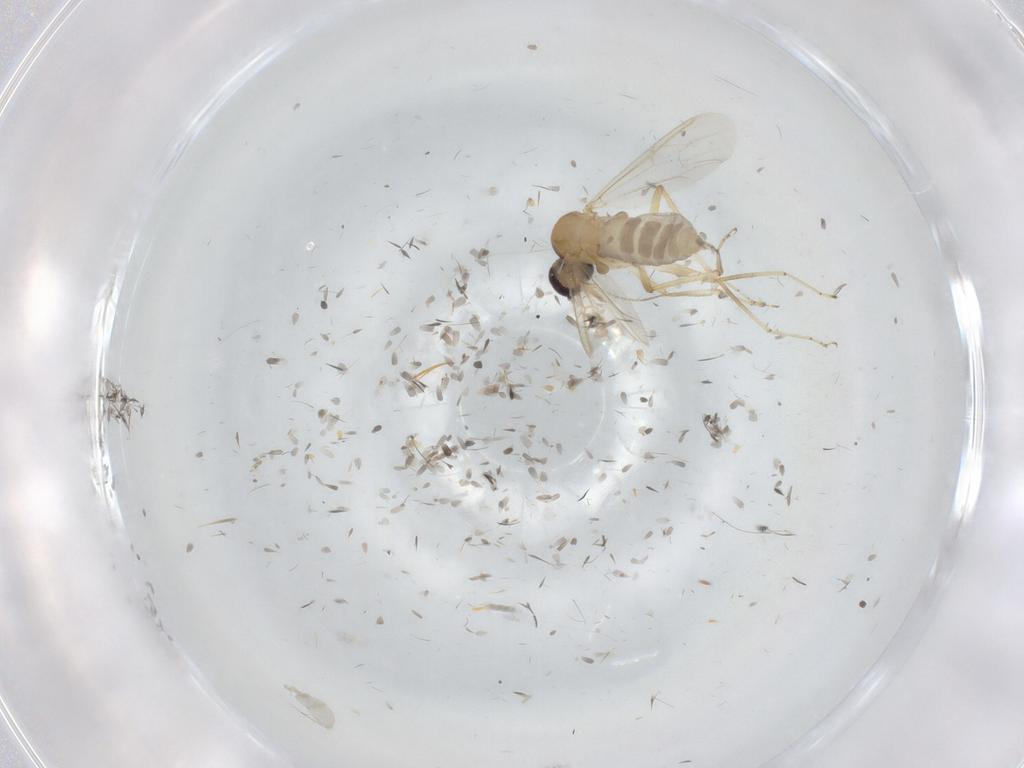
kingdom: Animalia
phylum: Arthropoda
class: Insecta
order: Diptera
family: Ceratopogonidae
